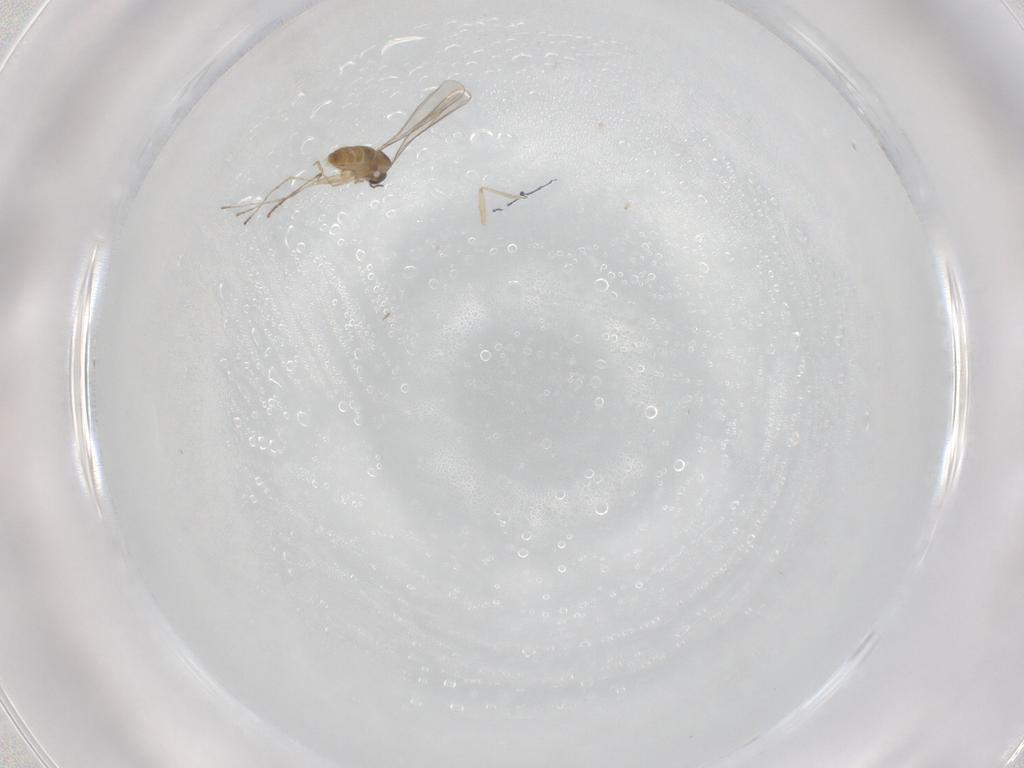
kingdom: Animalia
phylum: Arthropoda
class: Insecta
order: Diptera
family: Cecidomyiidae
